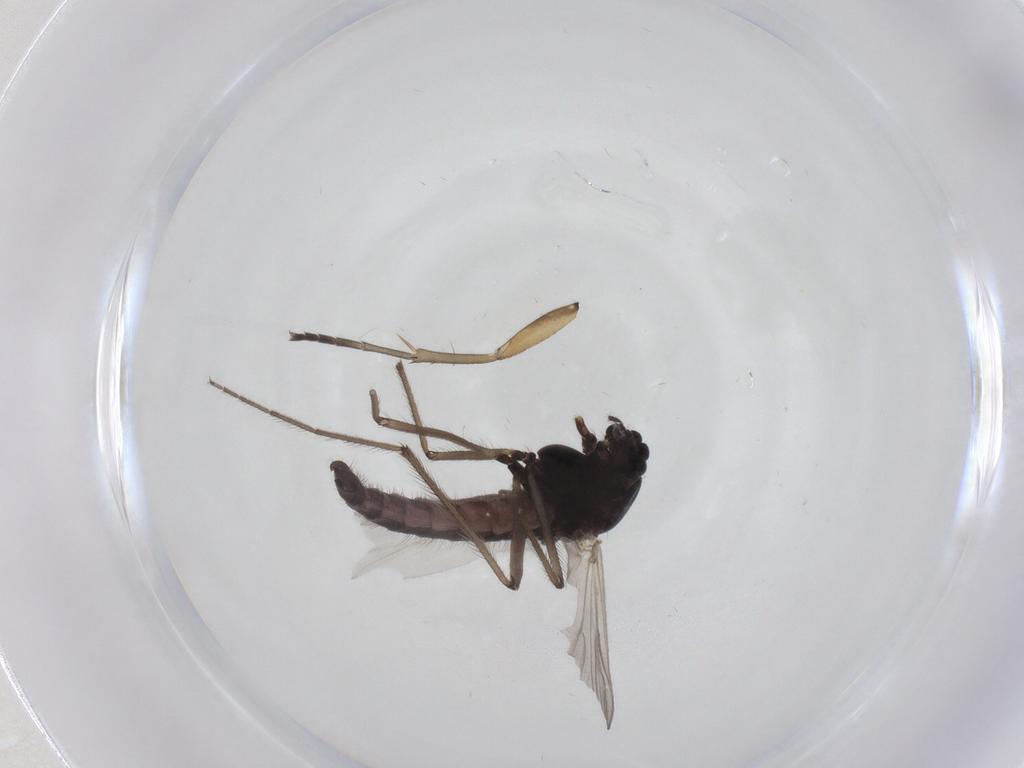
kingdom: Animalia
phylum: Arthropoda
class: Insecta
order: Diptera
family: Chironomidae
